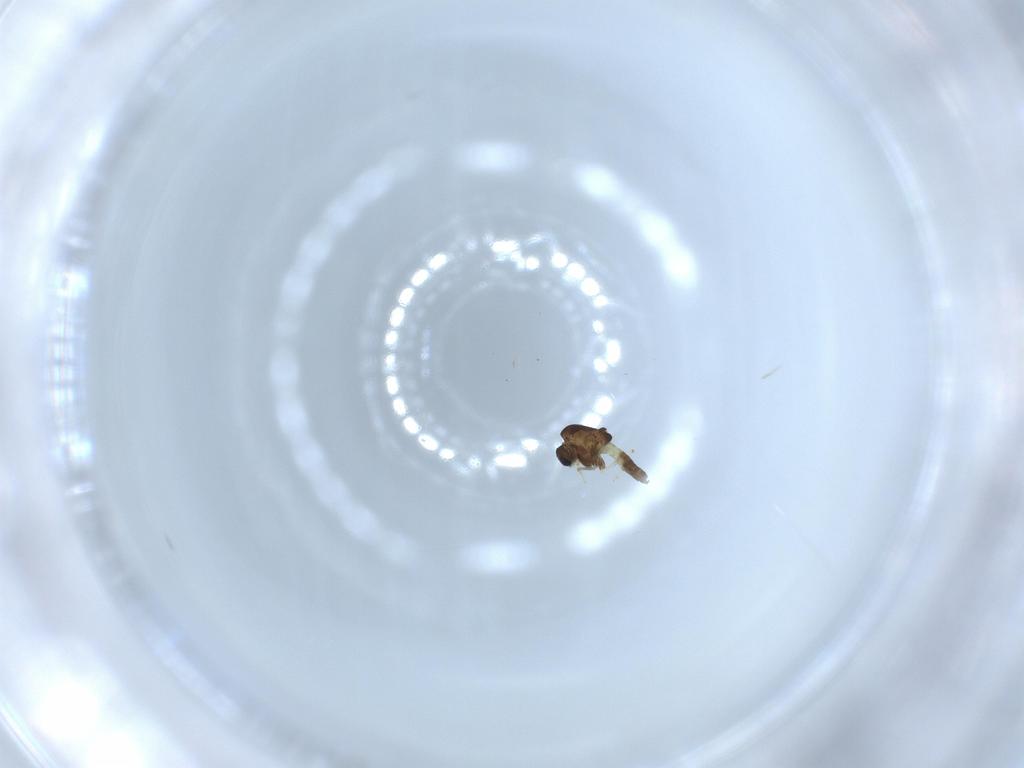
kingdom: Animalia
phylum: Arthropoda
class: Insecta
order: Diptera
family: Chironomidae
